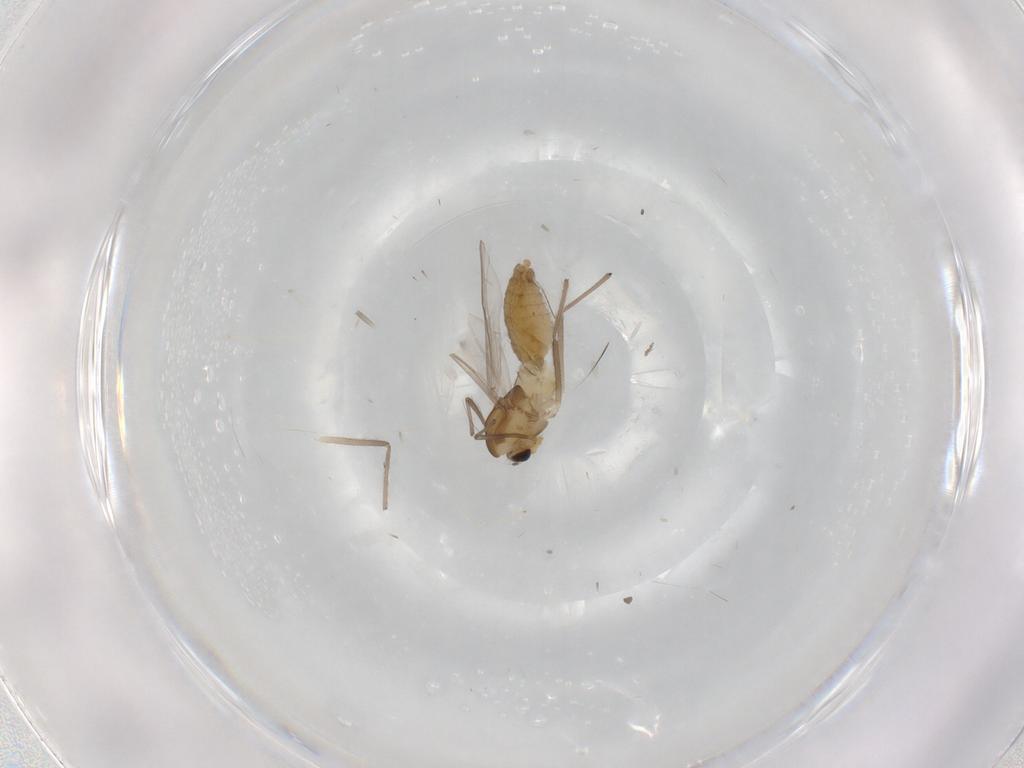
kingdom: Animalia
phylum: Arthropoda
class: Insecta
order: Diptera
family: Chironomidae
